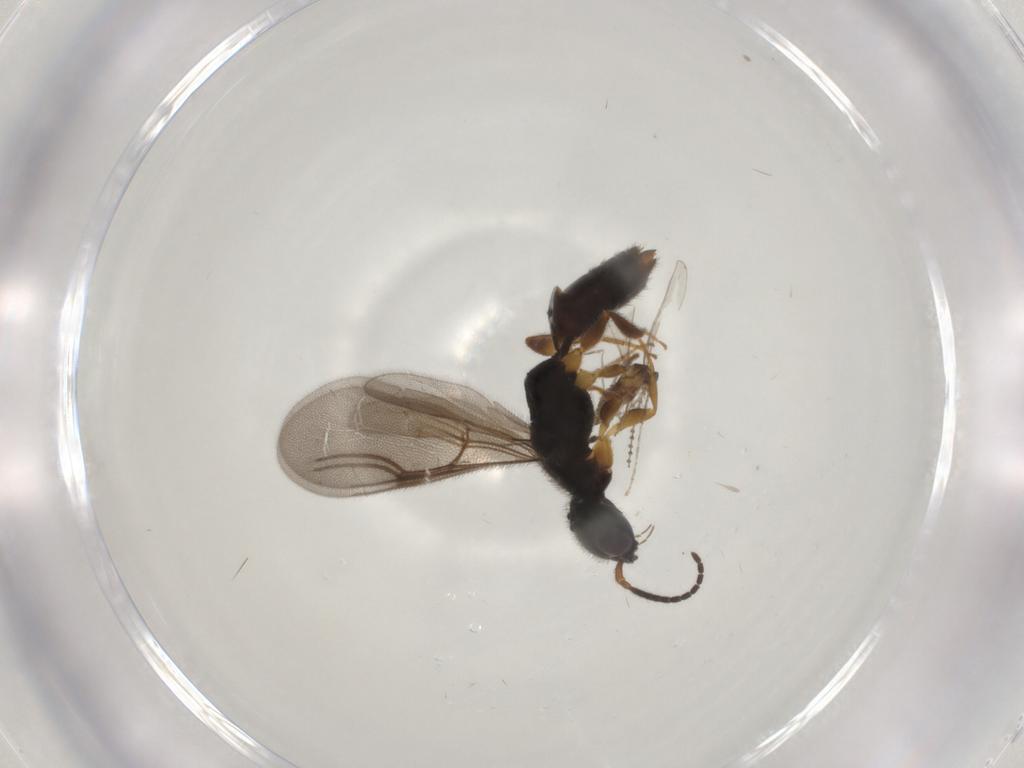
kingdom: Animalia
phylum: Arthropoda
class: Insecta
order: Diptera
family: Cecidomyiidae
